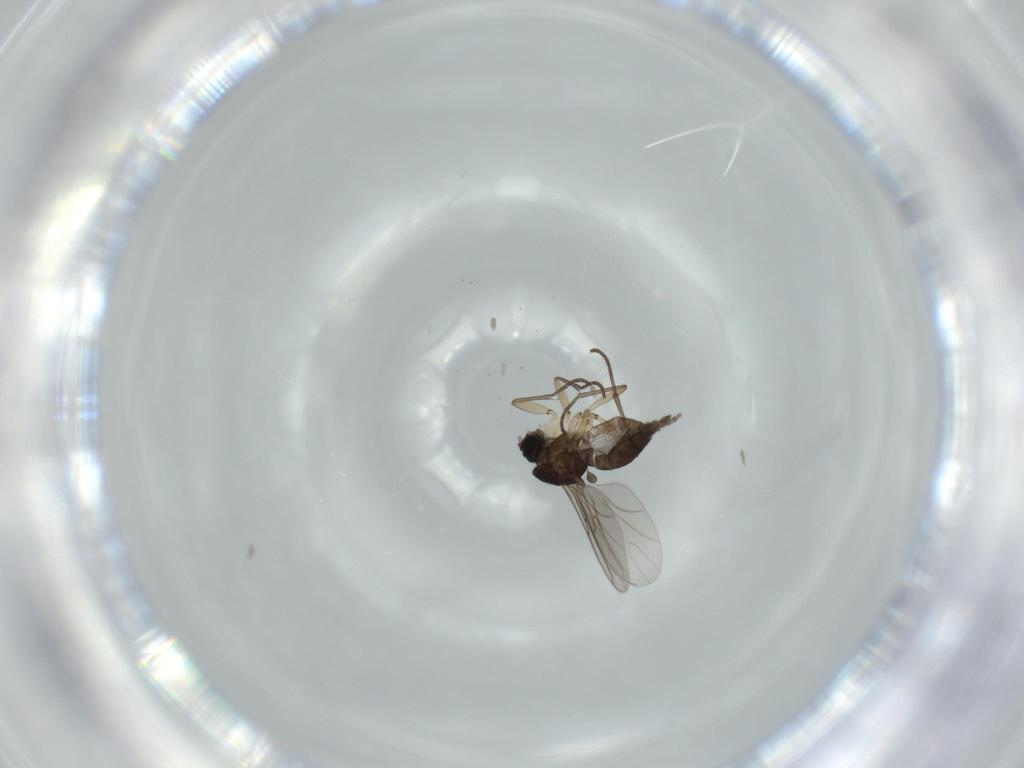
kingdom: Animalia
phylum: Arthropoda
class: Insecta
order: Diptera
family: Sciaridae
